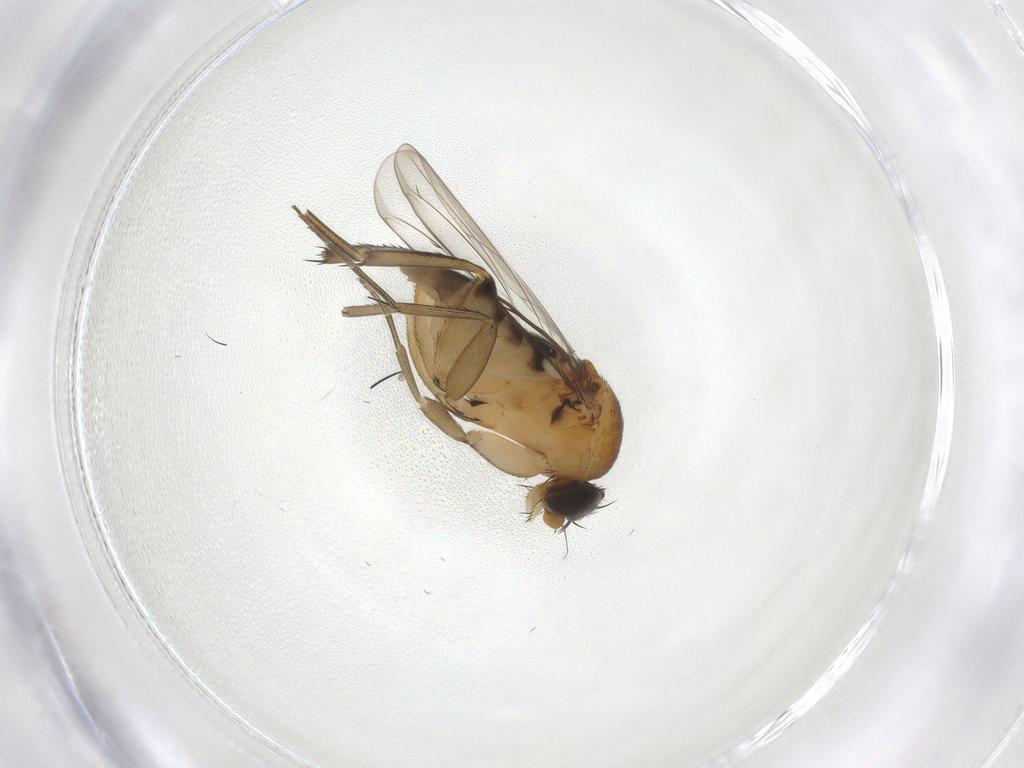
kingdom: Animalia
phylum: Arthropoda
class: Insecta
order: Diptera
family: Phoridae
